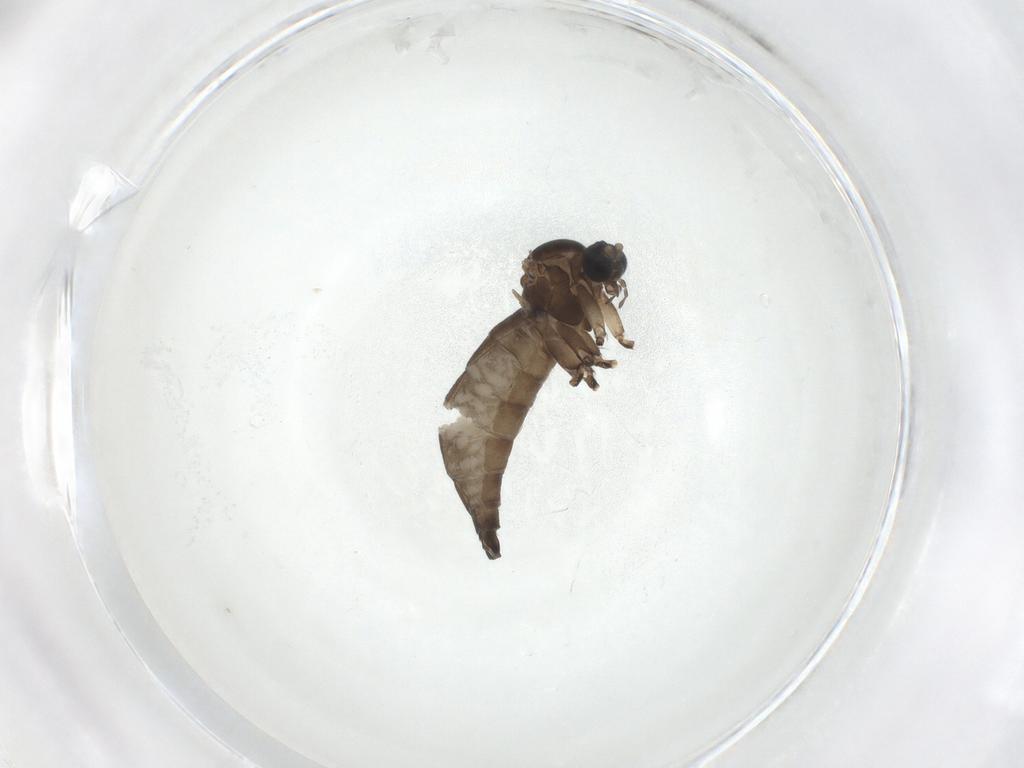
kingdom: Animalia
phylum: Arthropoda
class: Insecta
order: Diptera
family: Sciaridae
